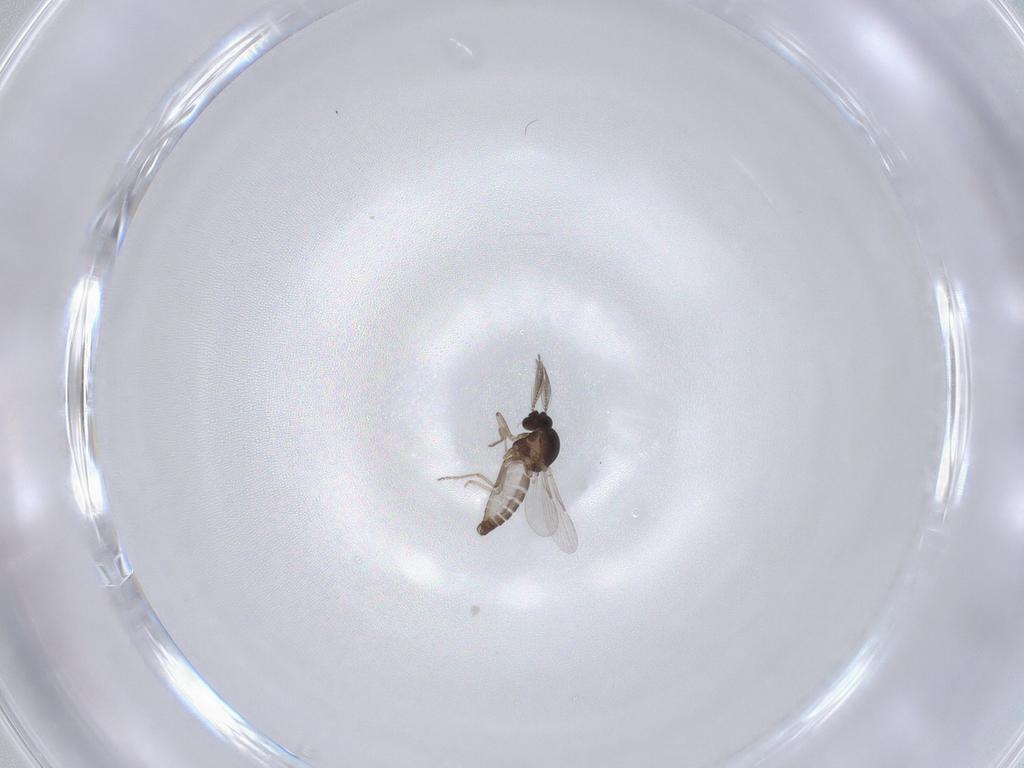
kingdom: Animalia
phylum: Arthropoda
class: Insecta
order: Diptera
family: Ceratopogonidae
